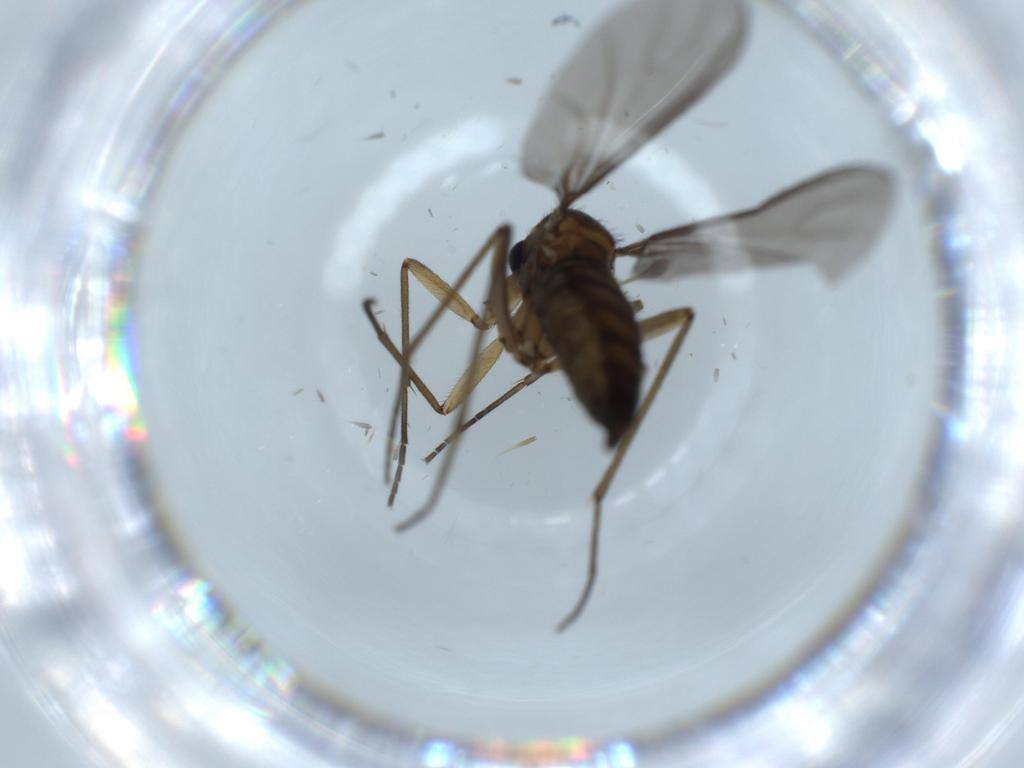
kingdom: Animalia
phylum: Arthropoda
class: Insecta
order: Diptera
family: Sciaridae
